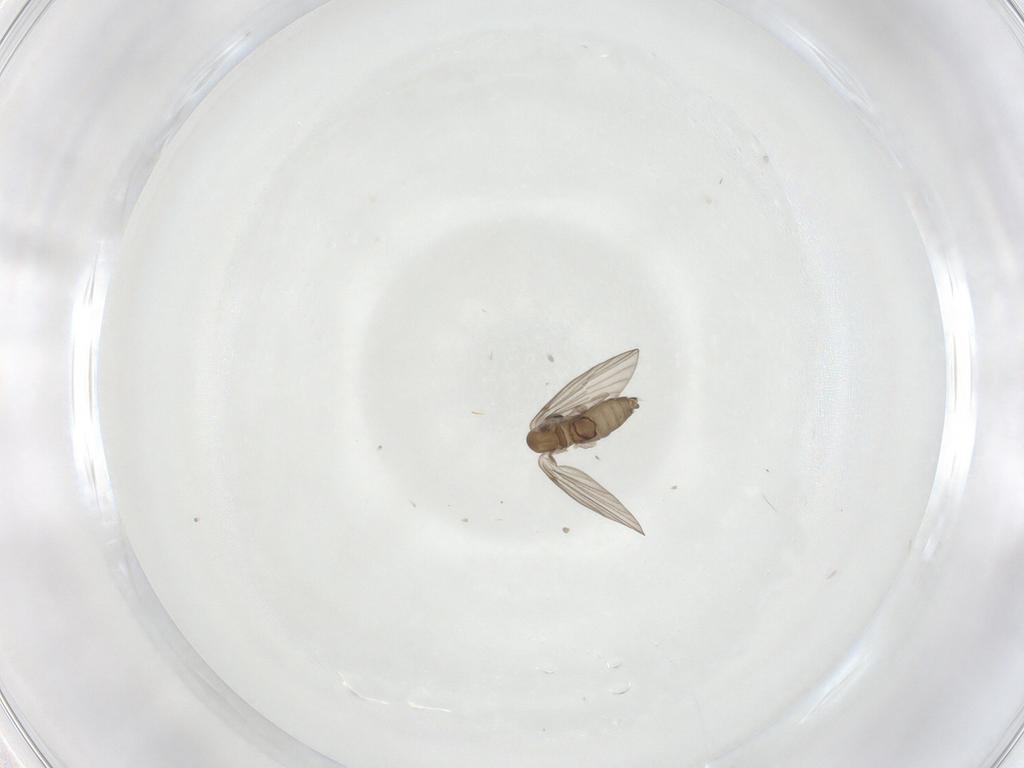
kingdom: Animalia
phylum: Arthropoda
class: Insecta
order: Diptera
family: Psychodidae
